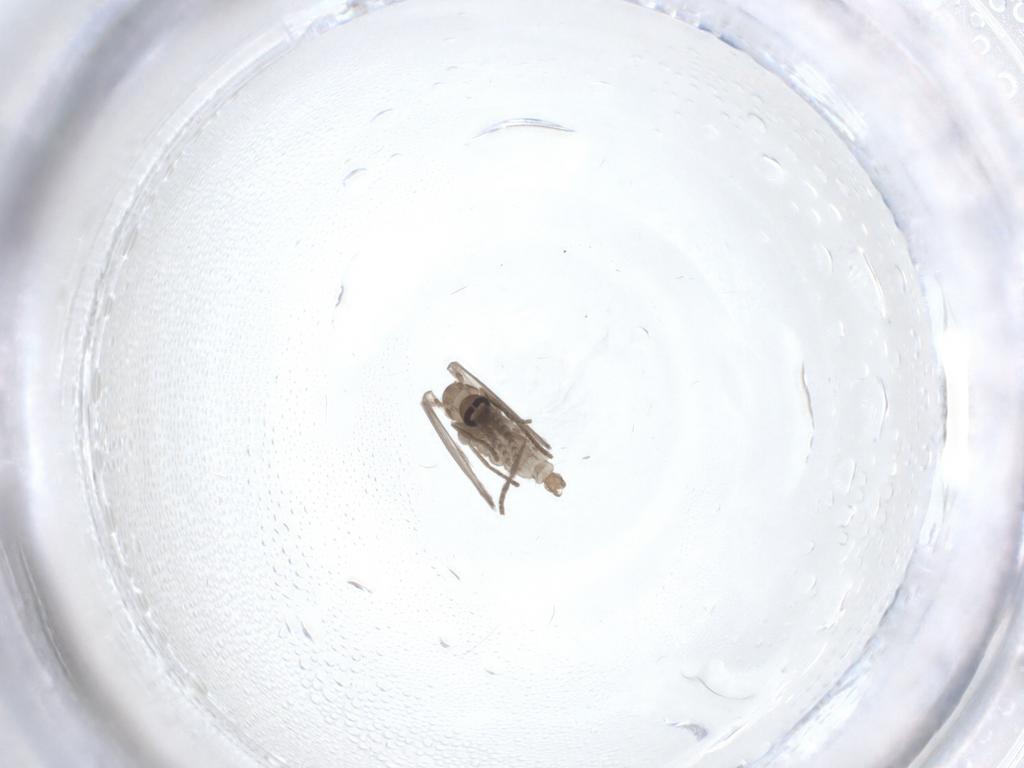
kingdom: Animalia
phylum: Arthropoda
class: Insecta
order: Diptera
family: Psychodidae
